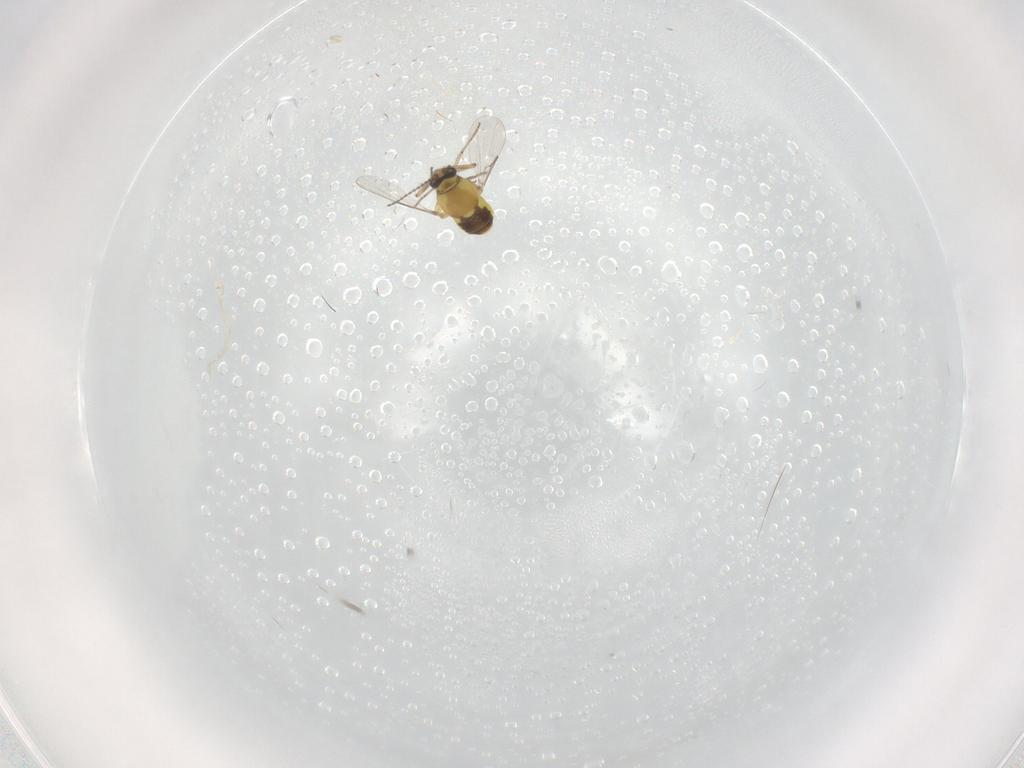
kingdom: Animalia
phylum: Arthropoda
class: Insecta
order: Diptera
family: Ceratopogonidae
